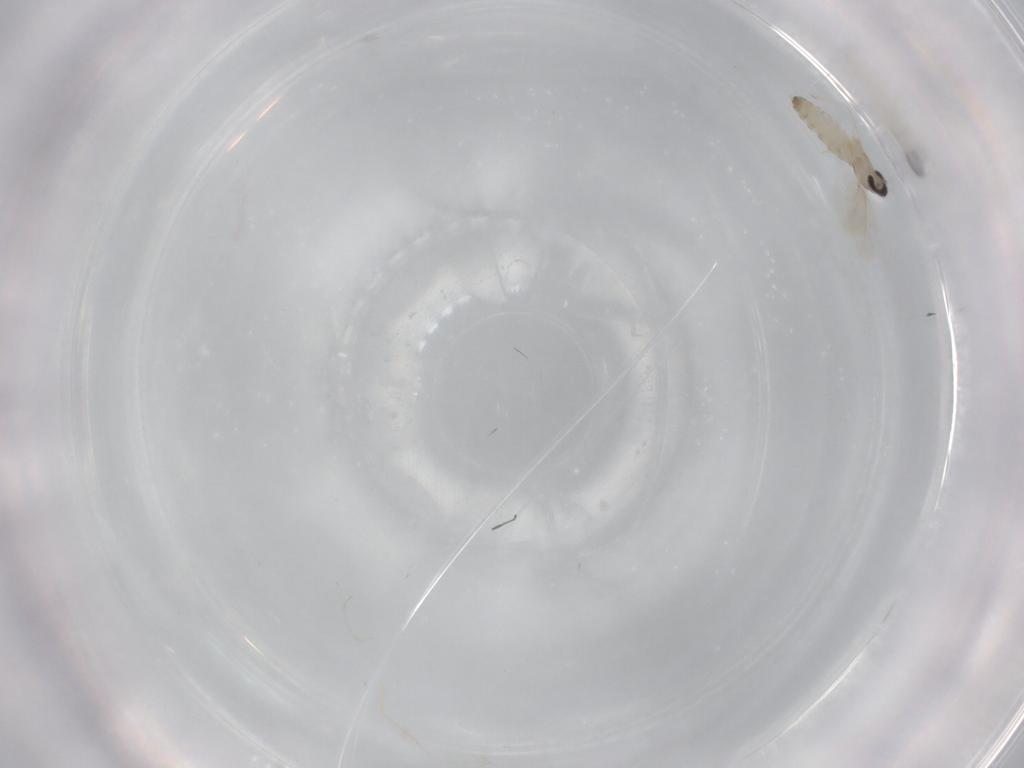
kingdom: Animalia
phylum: Arthropoda
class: Insecta
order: Diptera
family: Cecidomyiidae
